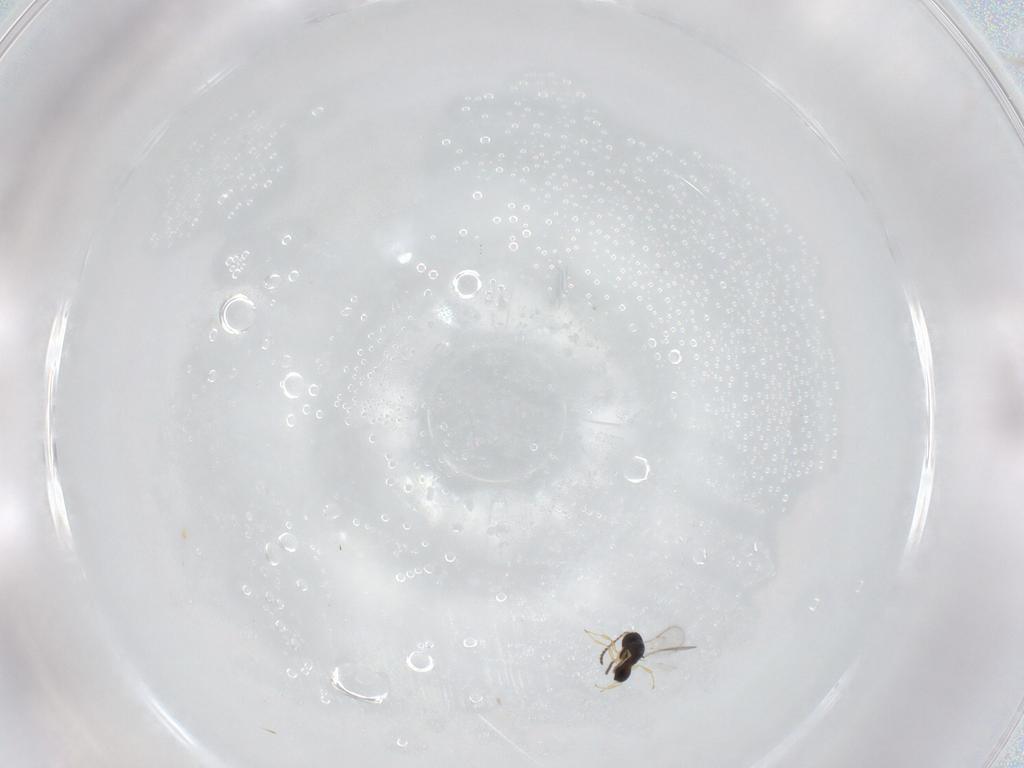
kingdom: Animalia
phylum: Arthropoda
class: Insecta
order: Hymenoptera
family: Scelionidae
